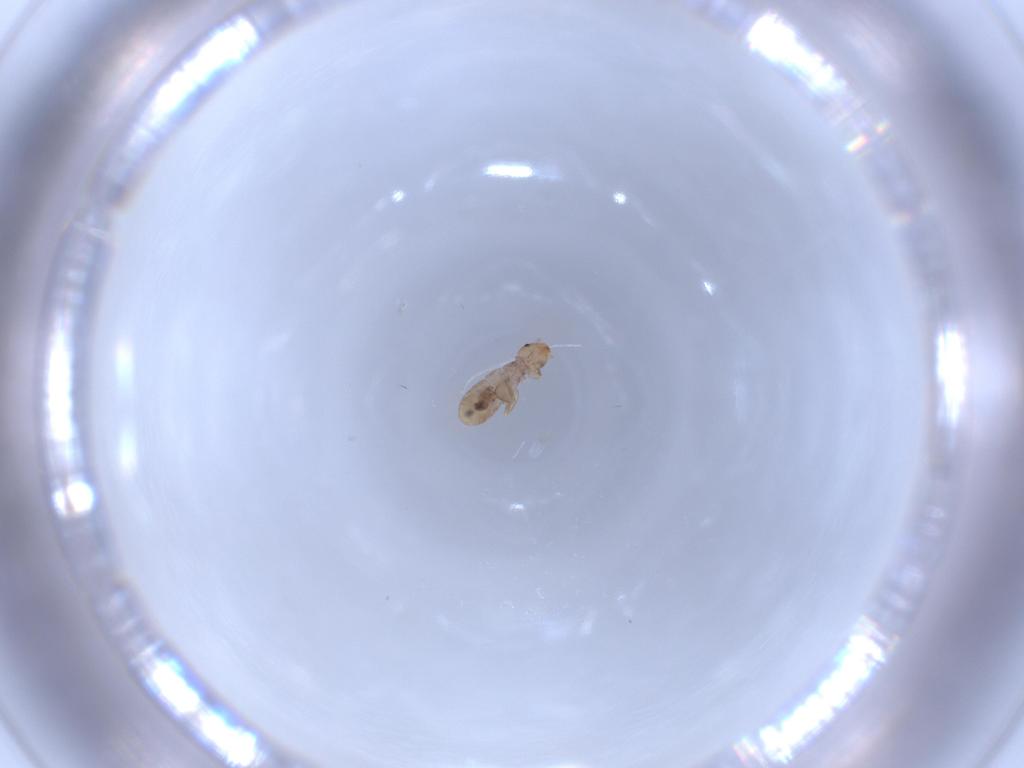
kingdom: Animalia
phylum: Arthropoda
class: Insecta
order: Psocodea
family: Liposcelididae
